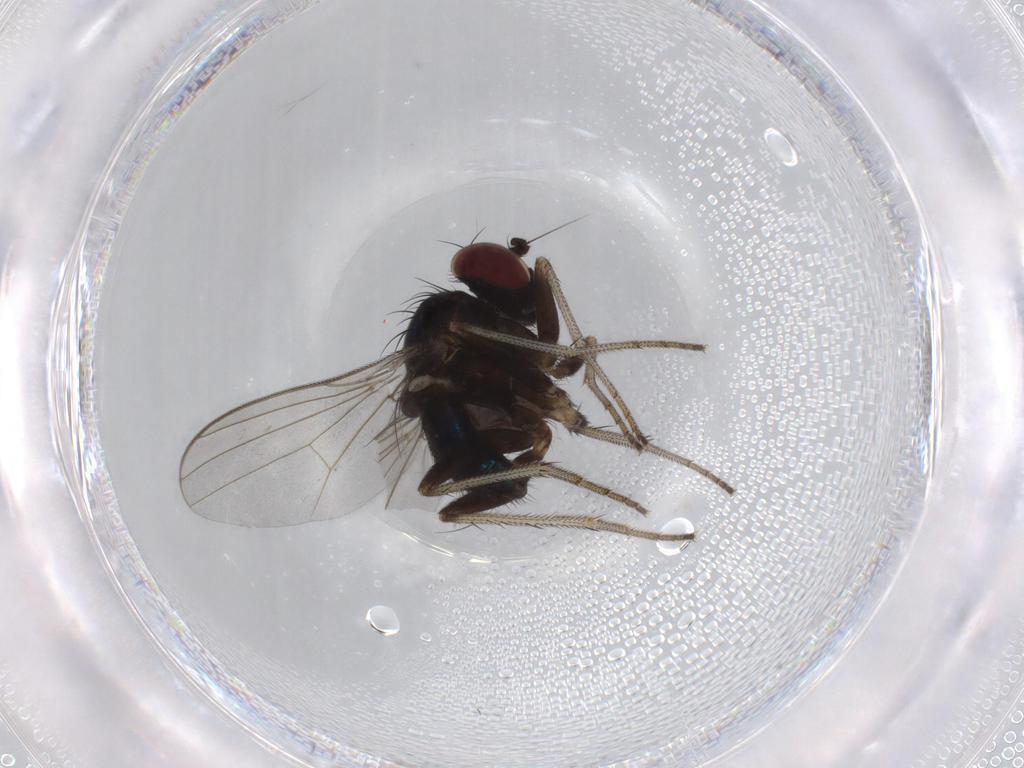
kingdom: Animalia
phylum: Arthropoda
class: Insecta
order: Diptera
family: Dolichopodidae
